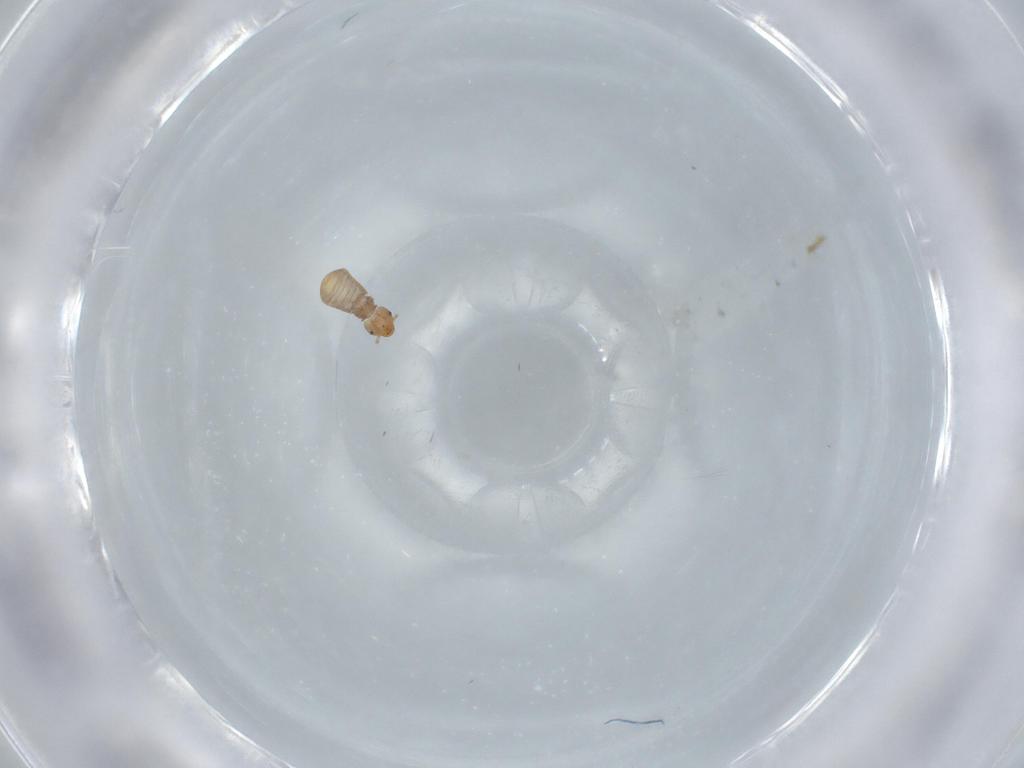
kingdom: Animalia
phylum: Arthropoda
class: Insecta
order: Psocodea
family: Liposcelididae
